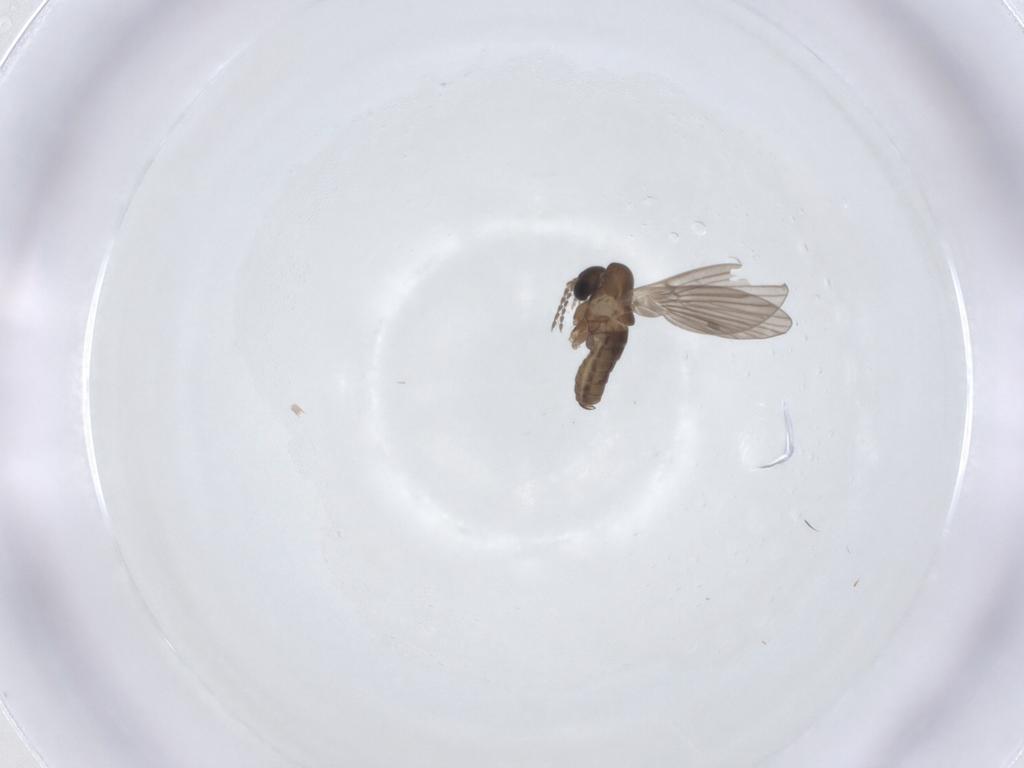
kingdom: Animalia
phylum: Arthropoda
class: Insecta
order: Diptera
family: Psychodidae
